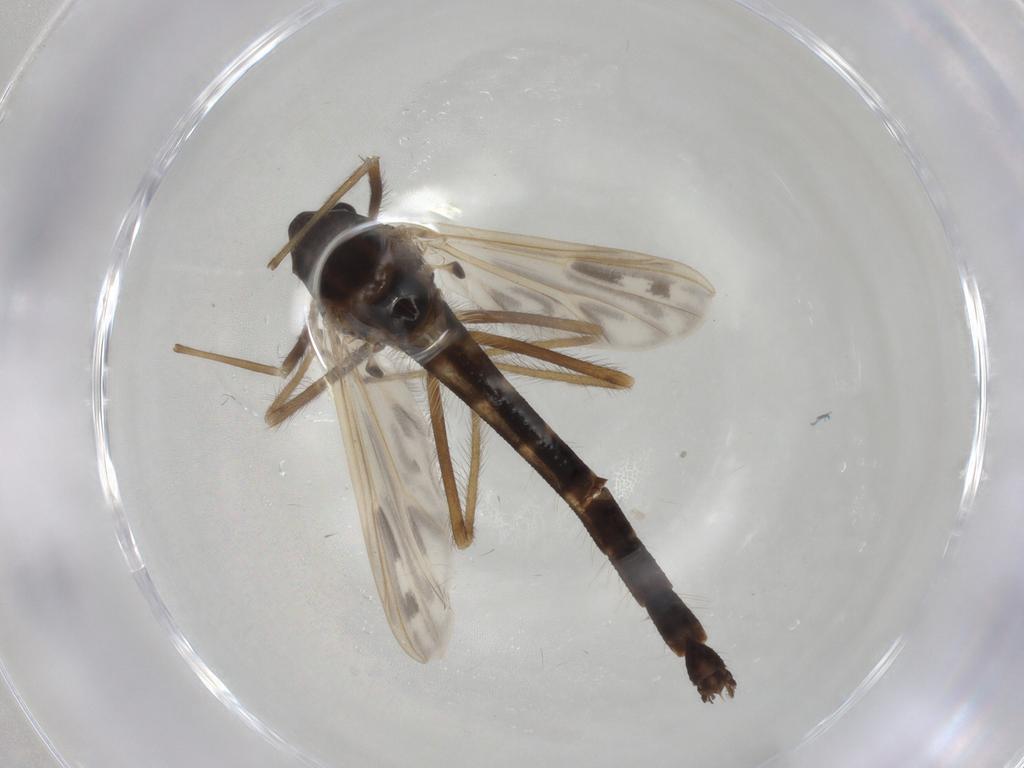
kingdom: Animalia
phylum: Arthropoda
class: Insecta
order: Diptera
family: Chironomidae
